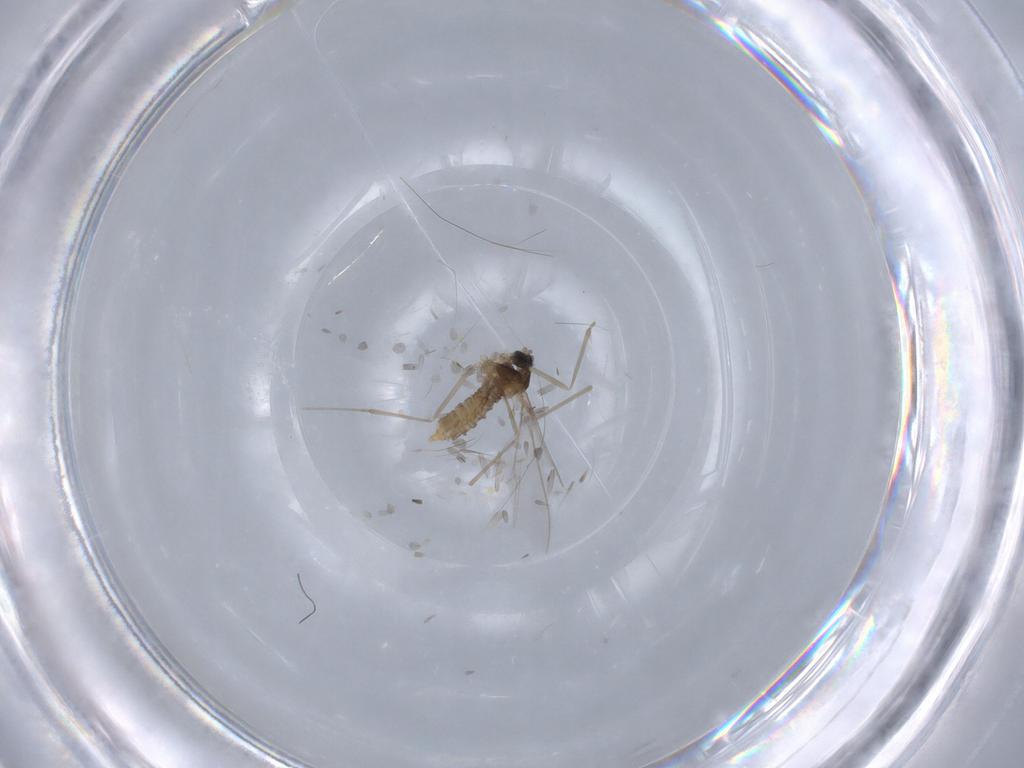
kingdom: Animalia
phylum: Arthropoda
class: Insecta
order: Diptera
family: Cecidomyiidae
